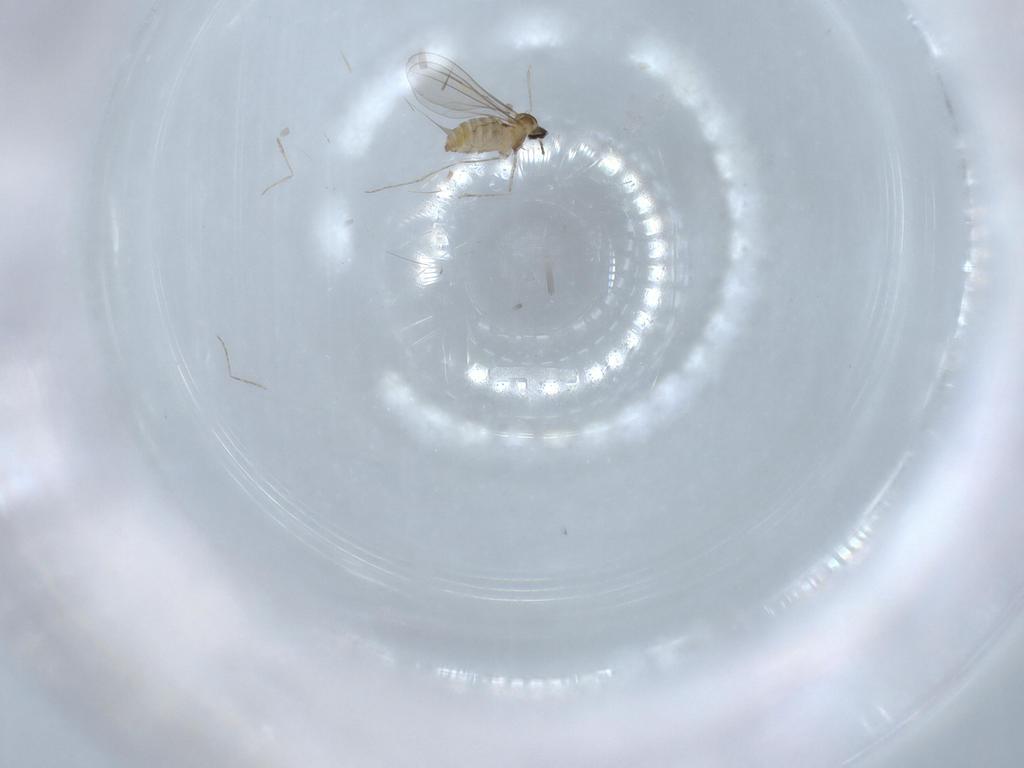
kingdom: Animalia
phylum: Arthropoda
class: Insecta
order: Diptera
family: Cecidomyiidae
